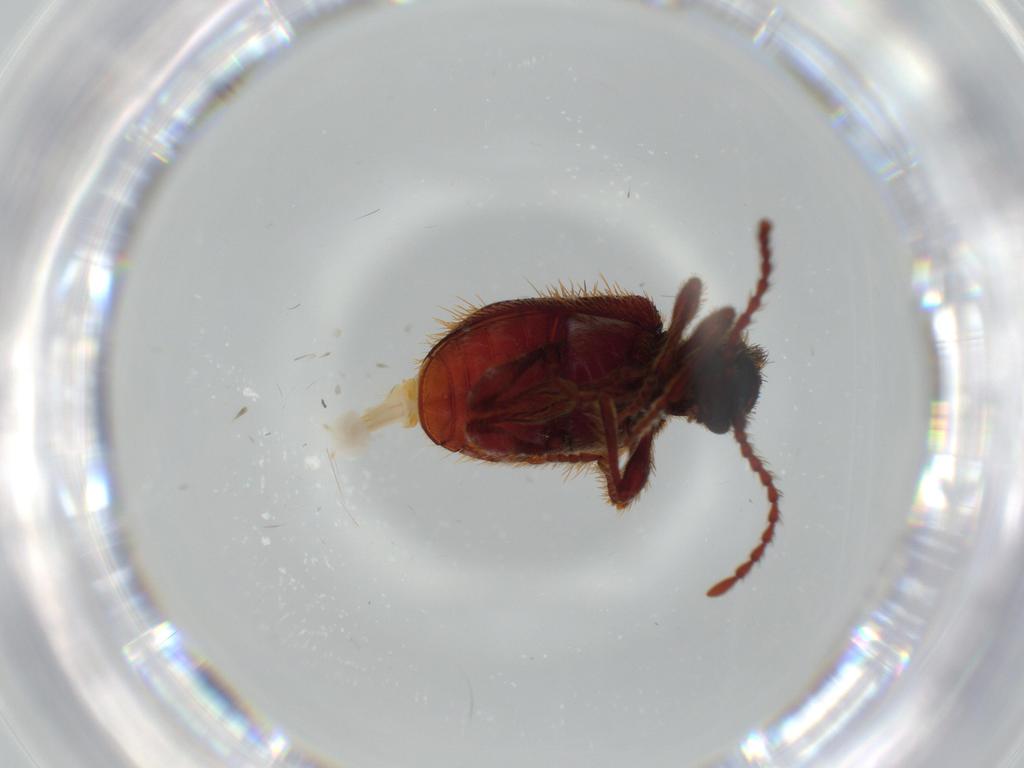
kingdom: Animalia
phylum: Arthropoda
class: Insecta
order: Coleoptera
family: Ptinidae
